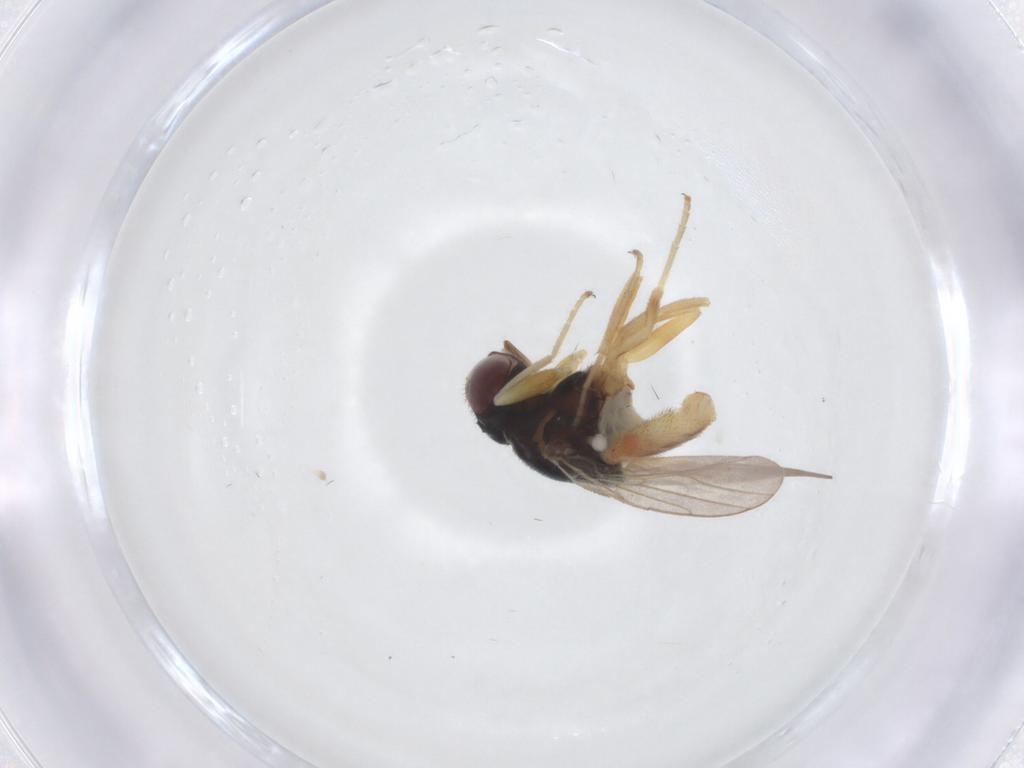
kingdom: Animalia
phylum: Arthropoda
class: Insecta
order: Diptera
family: Chloropidae
